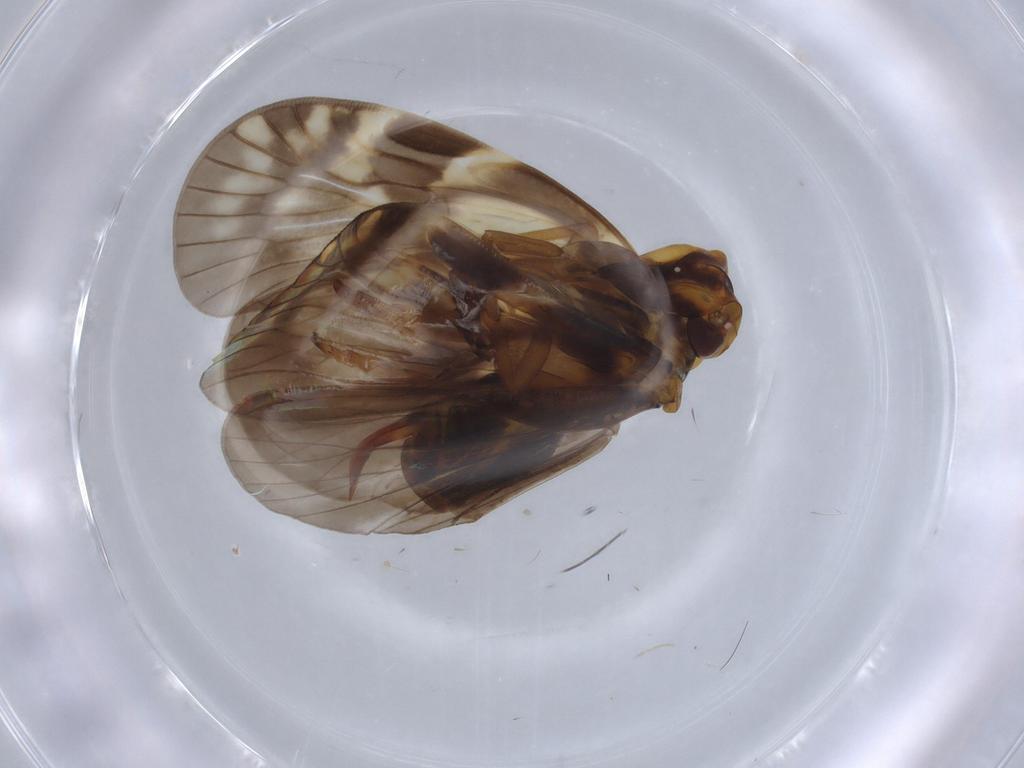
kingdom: Animalia
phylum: Arthropoda
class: Insecta
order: Hemiptera
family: Cixiidae
